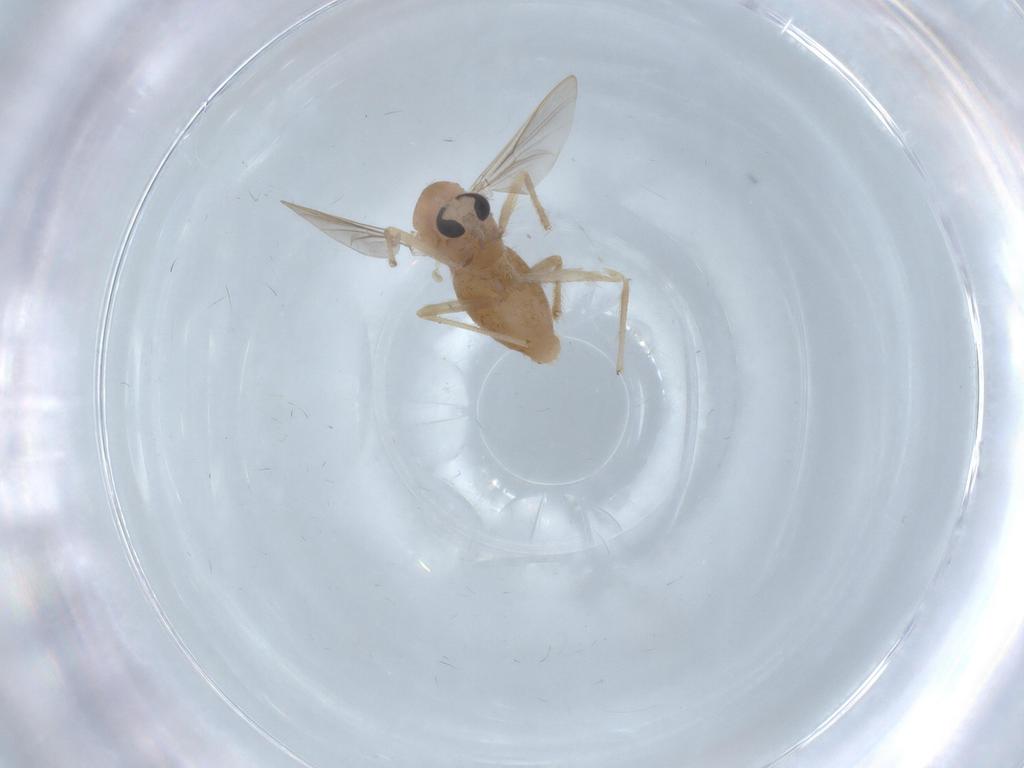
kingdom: Animalia
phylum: Arthropoda
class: Insecta
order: Diptera
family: Chironomidae
